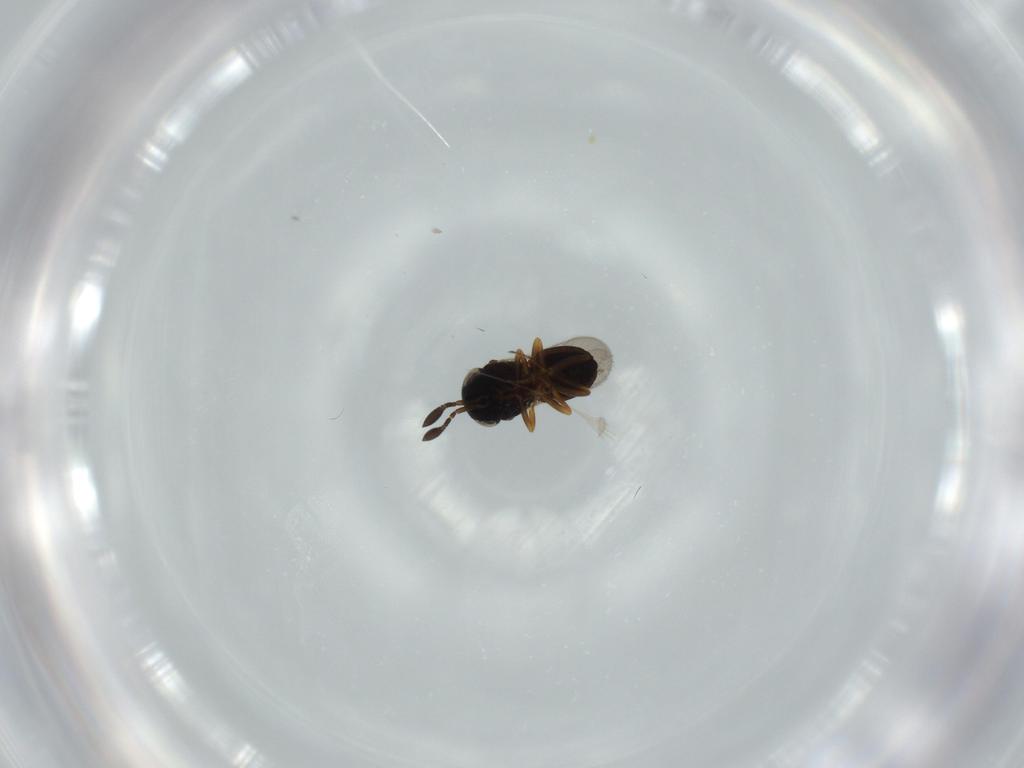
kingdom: Animalia
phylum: Arthropoda
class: Insecta
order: Coleoptera
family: Curculionidae
